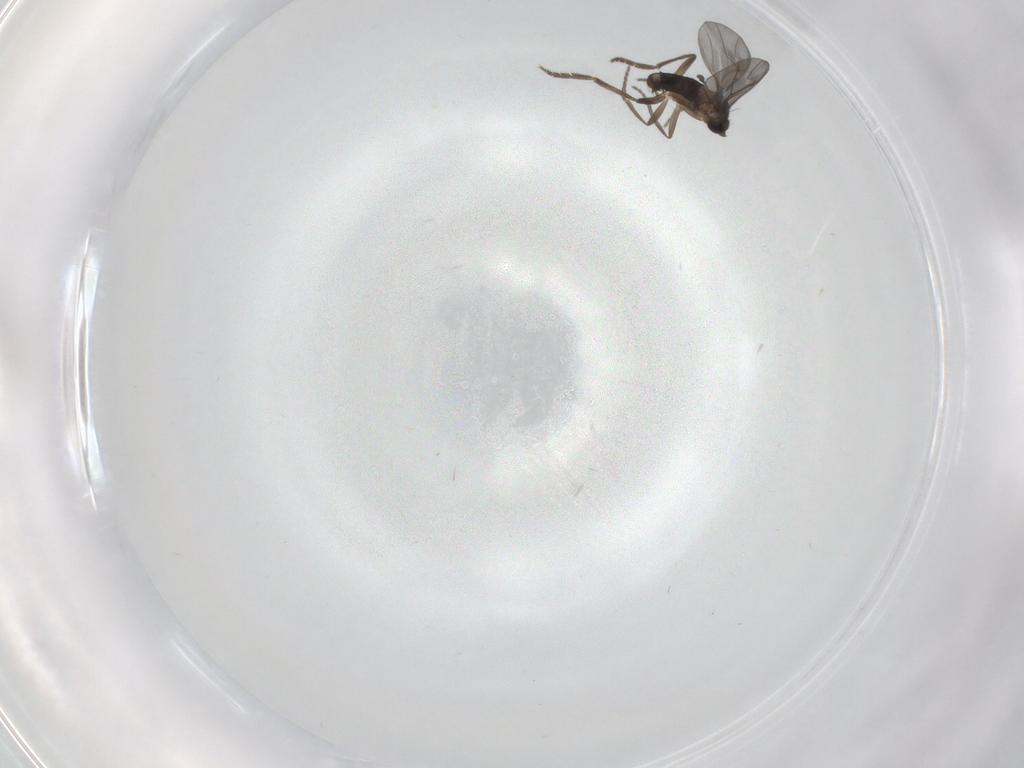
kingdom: Animalia
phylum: Arthropoda
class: Insecta
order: Diptera
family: Phoridae
